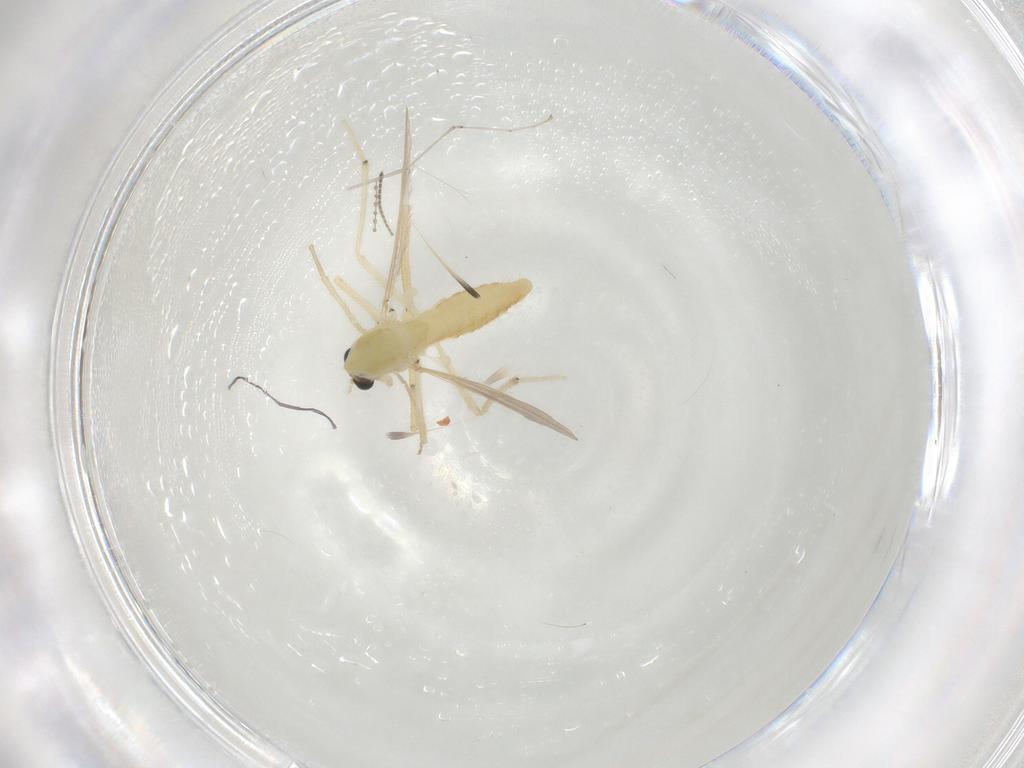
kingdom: Animalia
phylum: Arthropoda
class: Insecta
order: Diptera
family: Chironomidae
